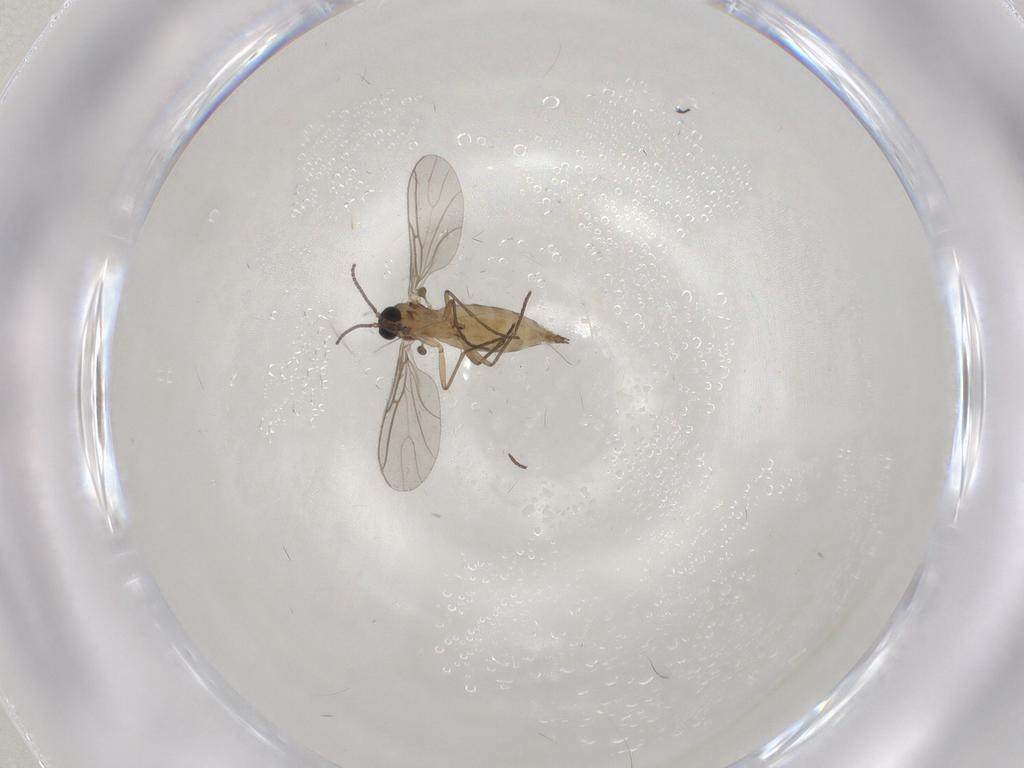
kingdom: Animalia
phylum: Arthropoda
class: Insecta
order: Diptera
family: Sciaridae
